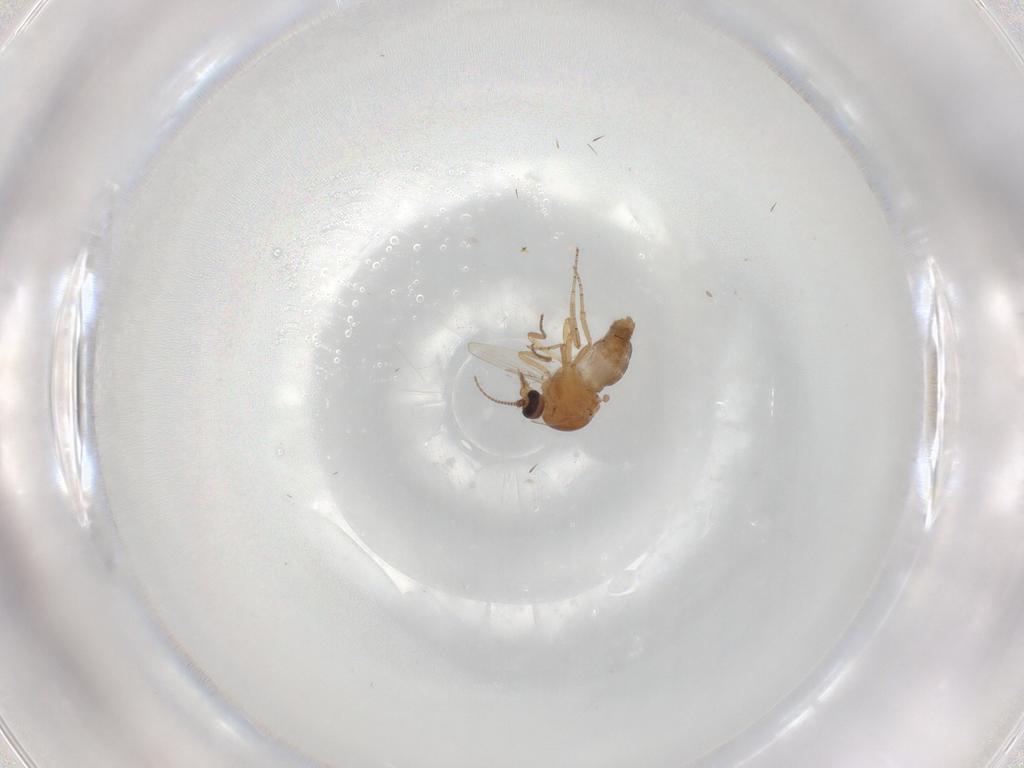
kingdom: Animalia
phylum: Arthropoda
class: Insecta
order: Diptera
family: Ceratopogonidae
